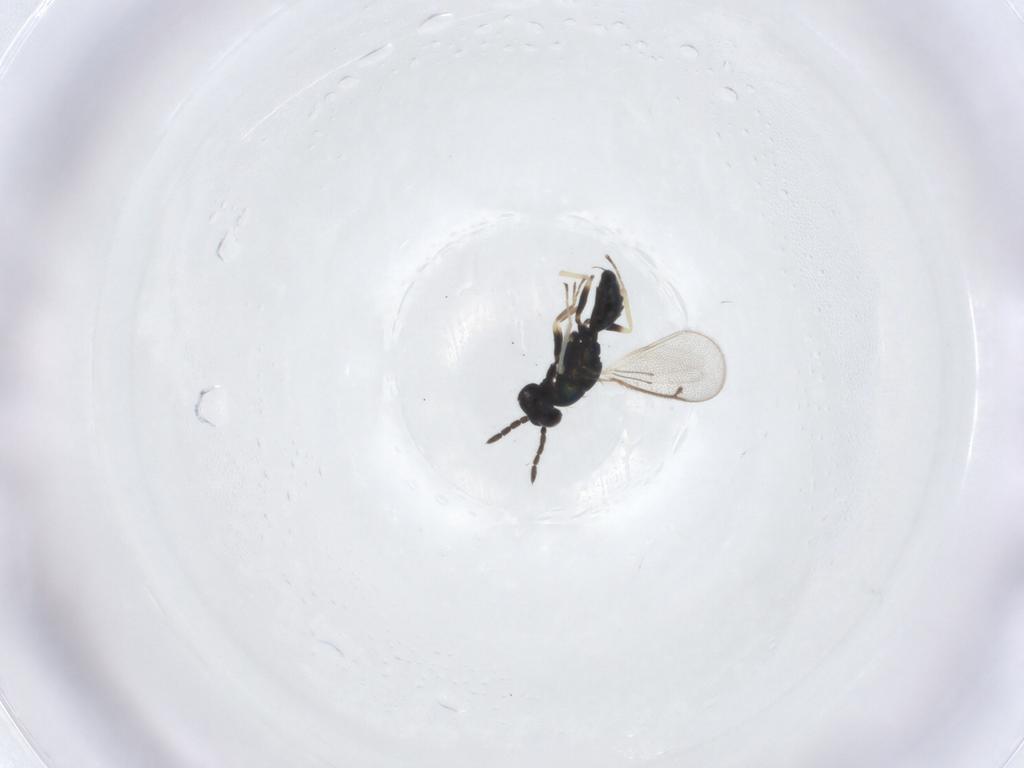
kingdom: Animalia
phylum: Arthropoda
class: Insecta
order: Hymenoptera
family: Eulophidae
